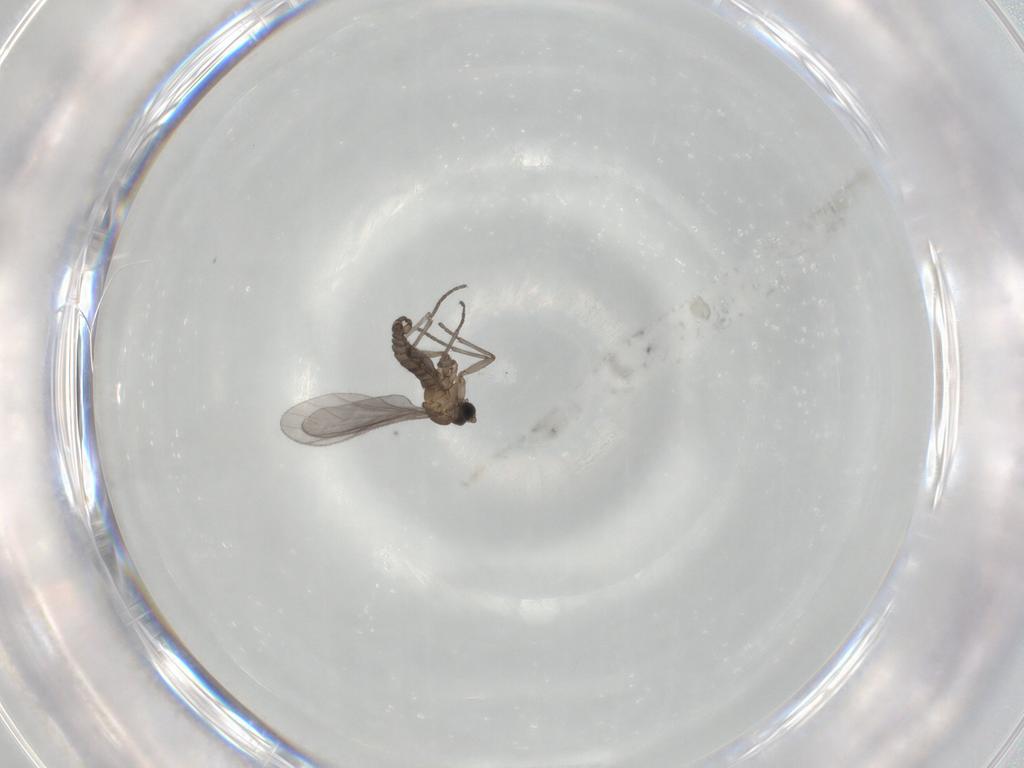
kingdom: Animalia
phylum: Arthropoda
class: Insecta
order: Diptera
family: Sciaridae
